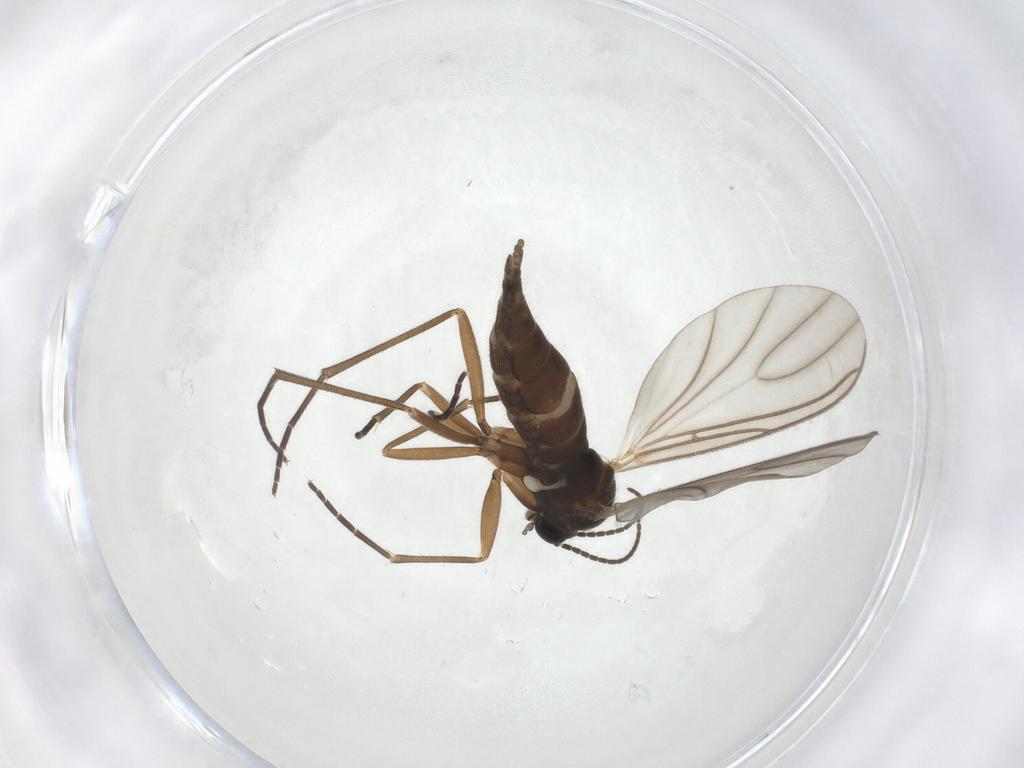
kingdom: Animalia
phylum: Arthropoda
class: Insecta
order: Diptera
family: Sciaridae
